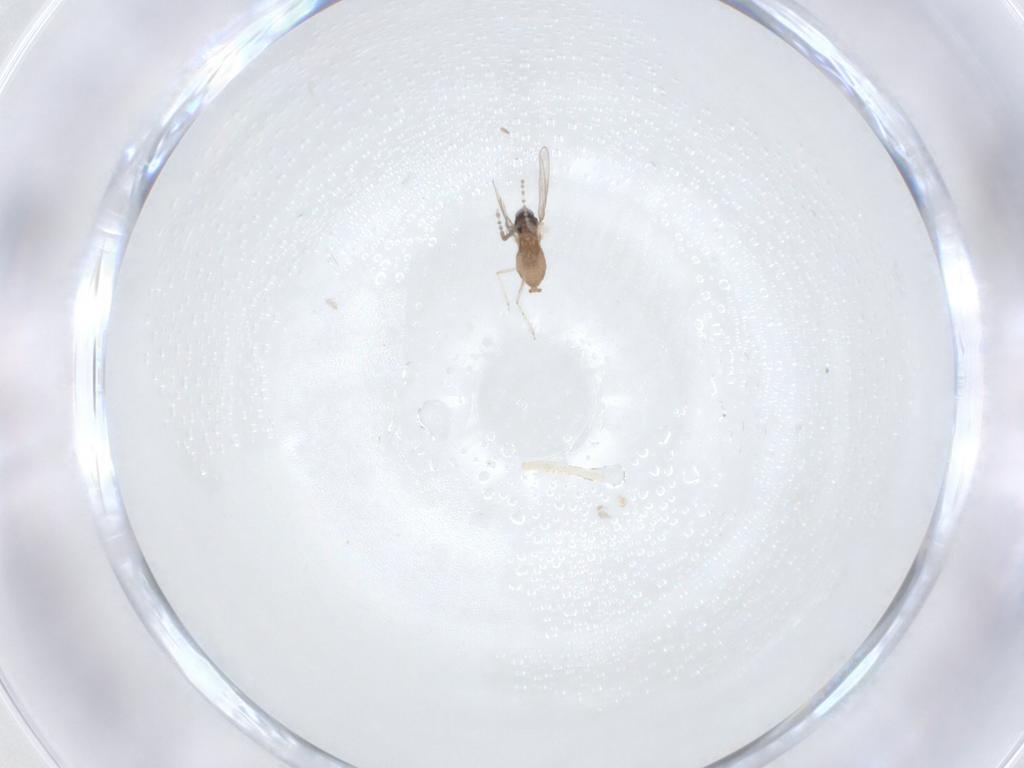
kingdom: Animalia
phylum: Arthropoda
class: Insecta
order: Diptera
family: Cecidomyiidae
